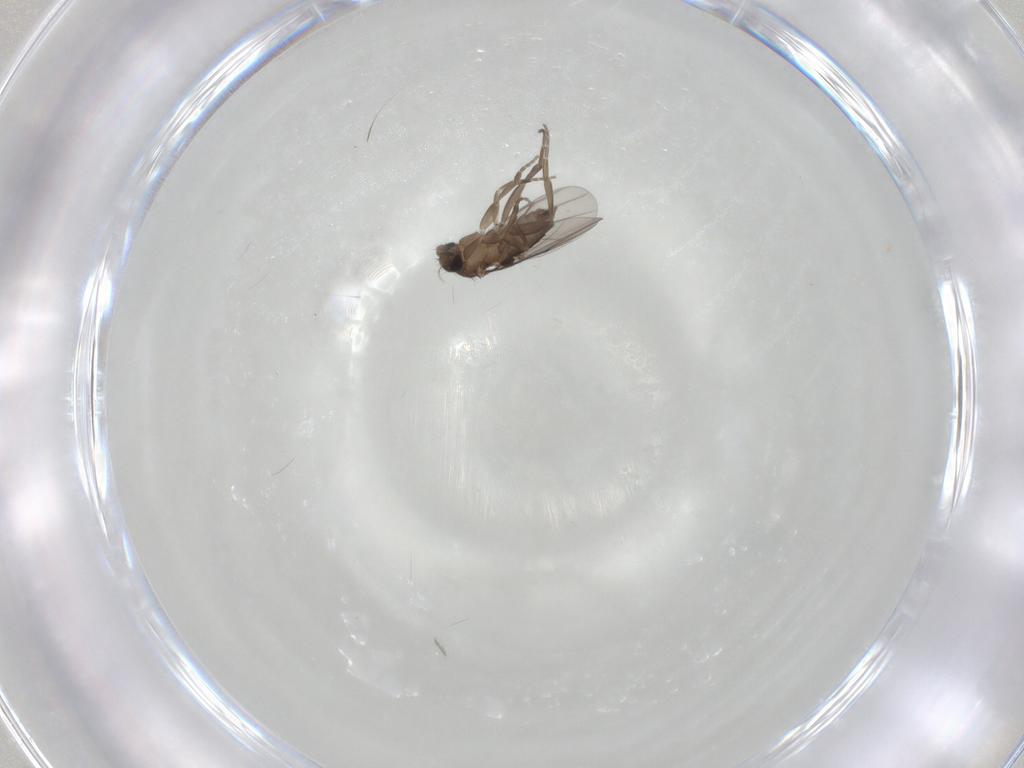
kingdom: Animalia
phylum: Arthropoda
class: Insecta
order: Diptera
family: Phoridae
